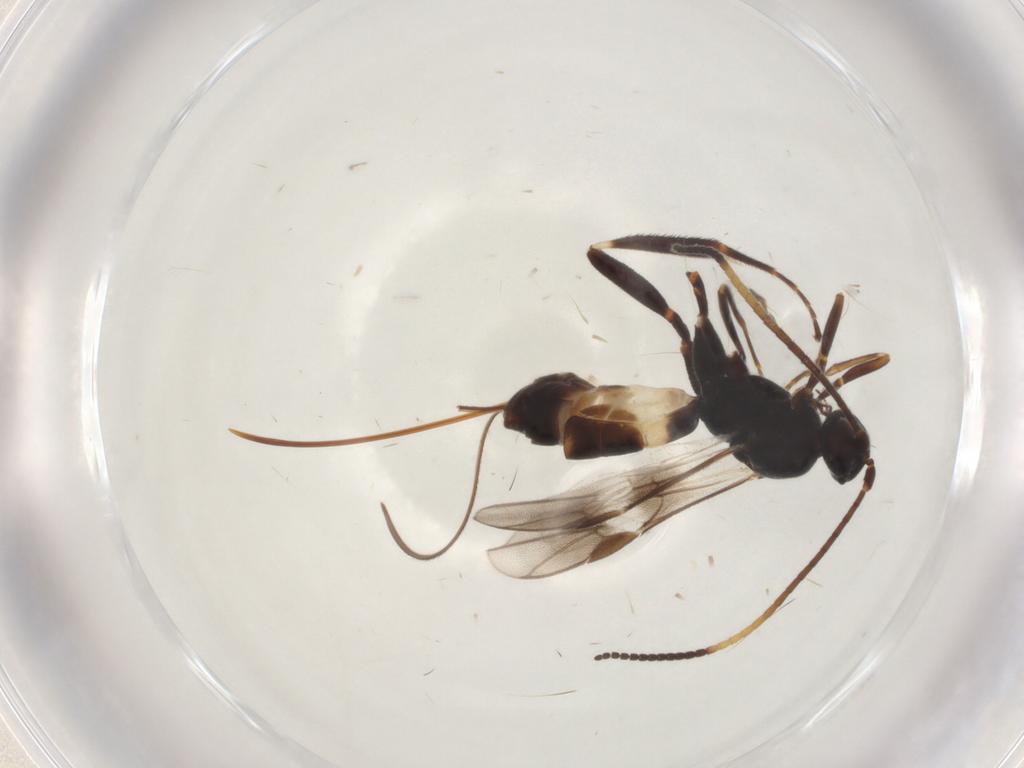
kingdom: Animalia
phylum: Arthropoda
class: Insecta
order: Hymenoptera
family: Braconidae
